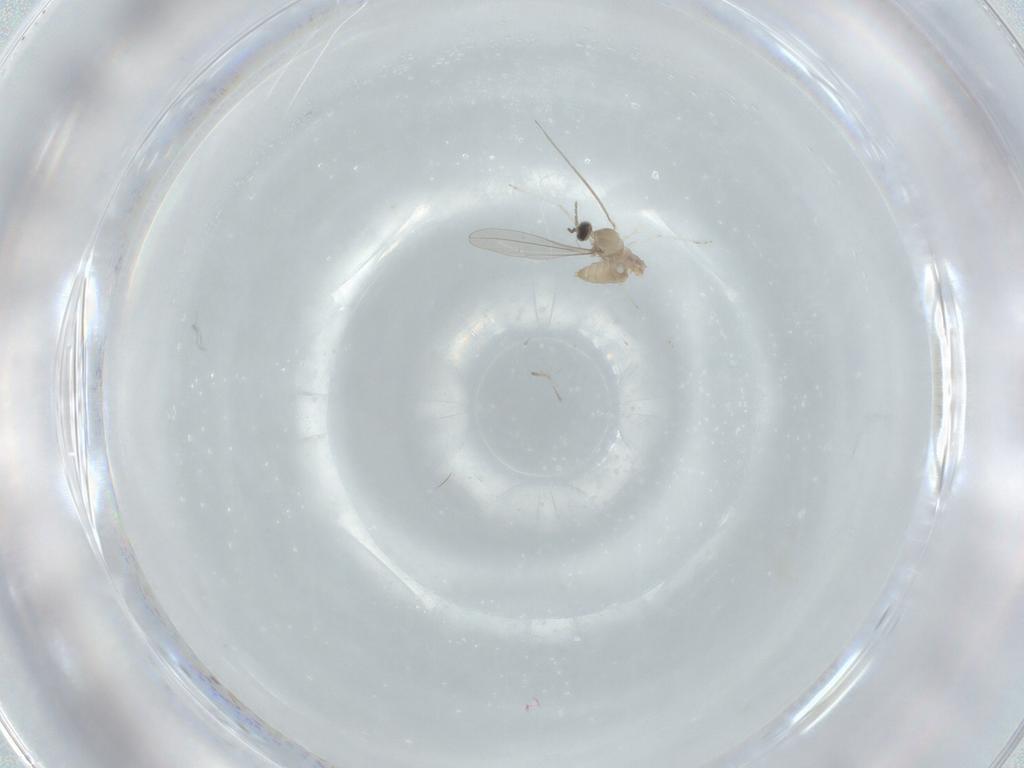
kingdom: Animalia
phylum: Arthropoda
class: Insecta
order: Diptera
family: Cecidomyiidae
